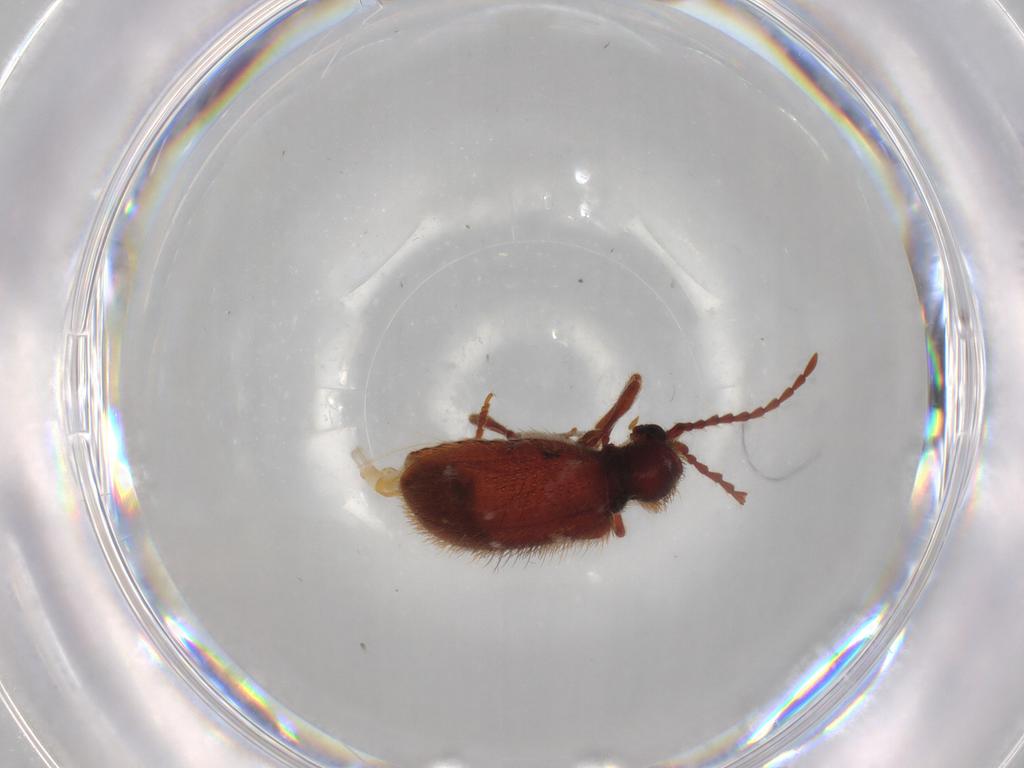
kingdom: Animalia
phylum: Arthropoda
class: Insecta
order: Coleoptera
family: Ptinidae
